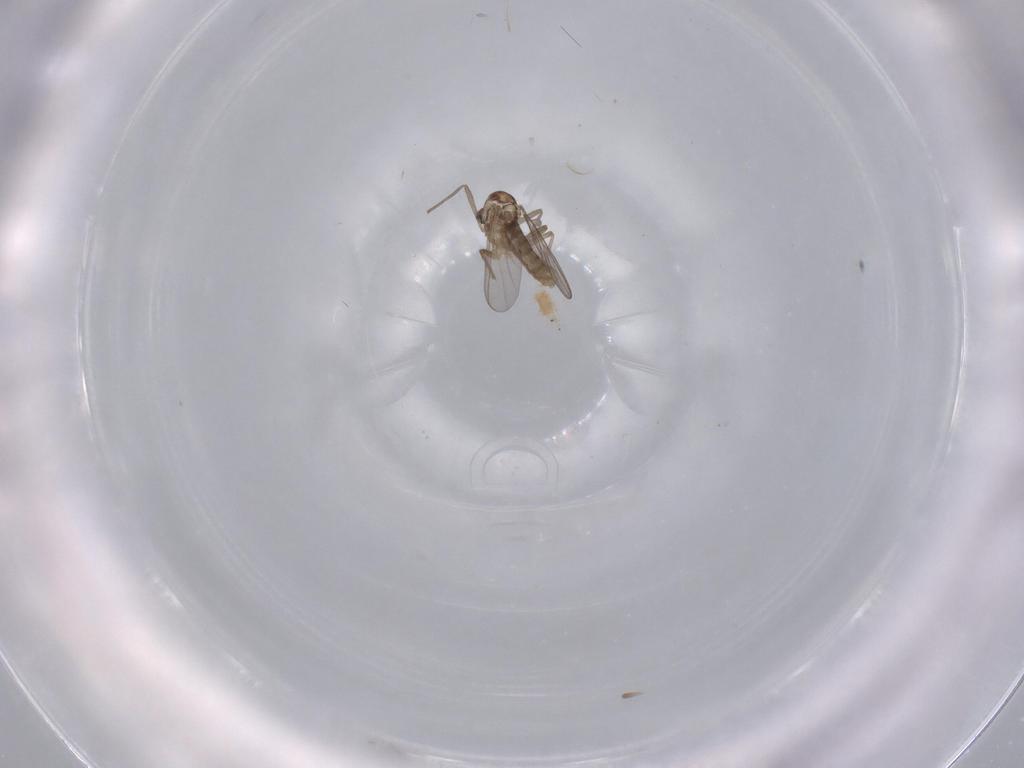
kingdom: Animalia
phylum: Arthropoda
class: Insecta
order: Diptera
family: Chironomidae
